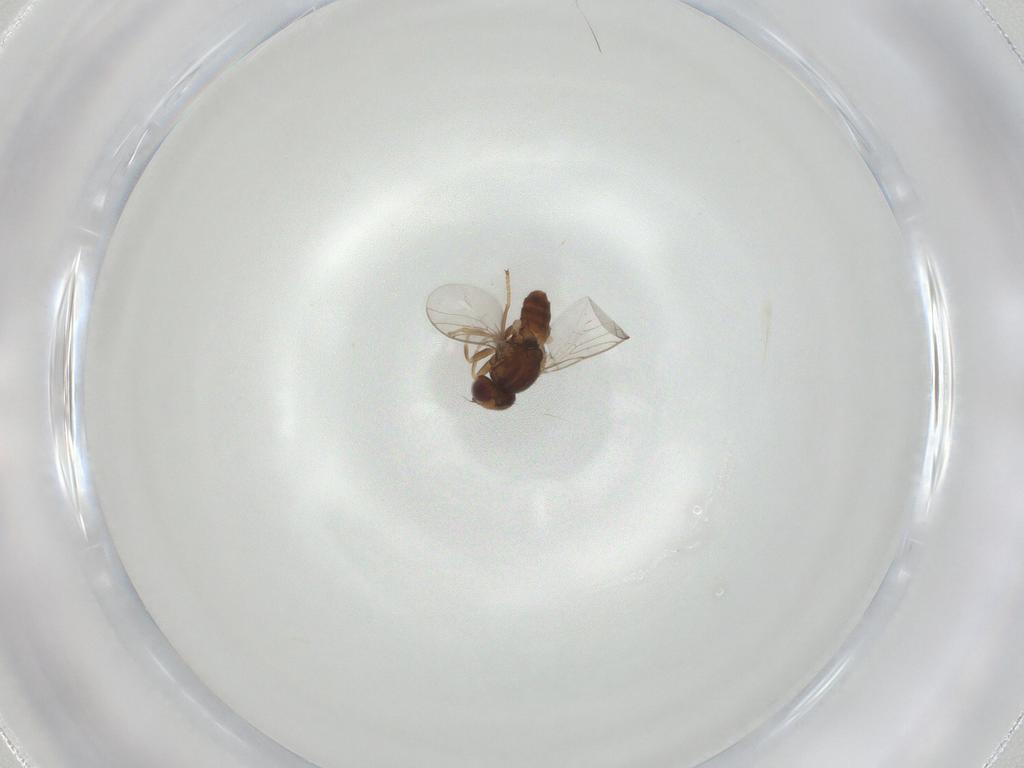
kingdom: Animalia
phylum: Arthropoda
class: Insecta
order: Diptera
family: Chloropidae
